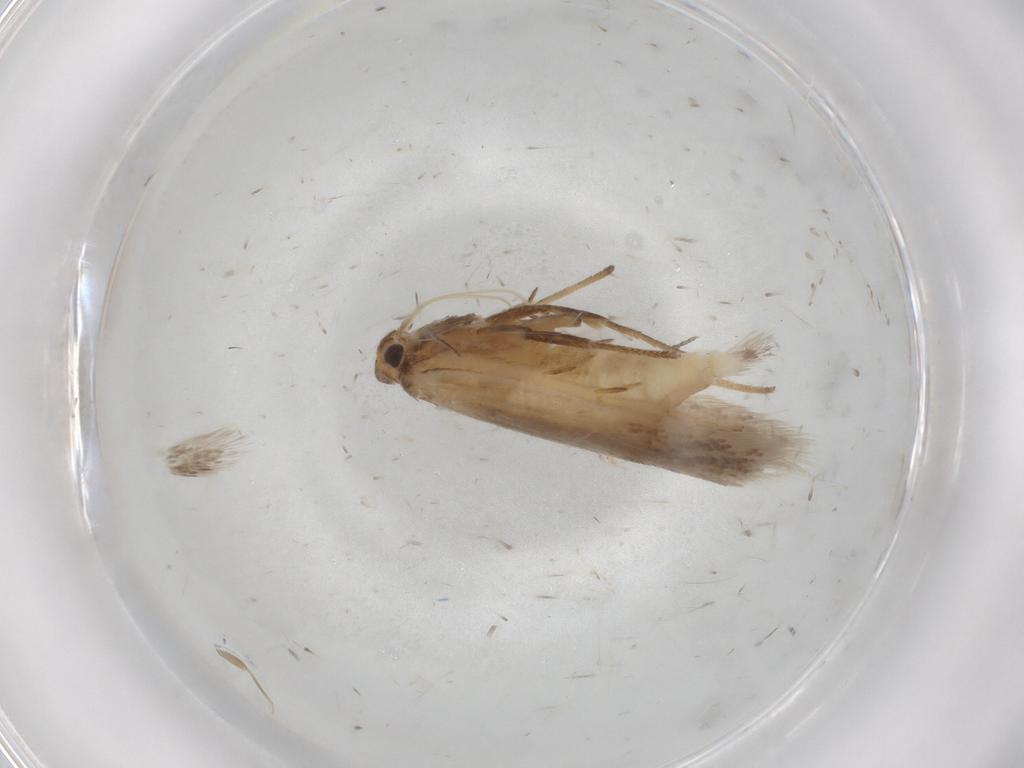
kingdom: Animalia
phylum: Arthropoda
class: Insecta
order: Lepidoptera
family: Gelechiidae
